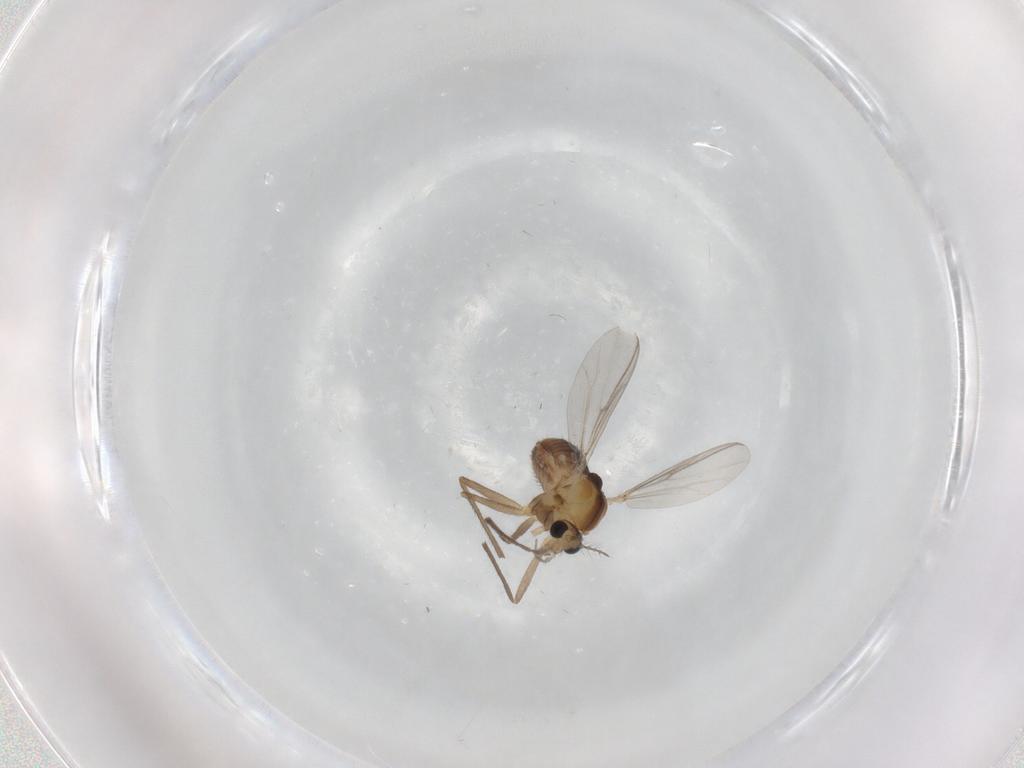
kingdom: Animalia
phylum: Arthropoda
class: Insecta
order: Diptera
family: Chironomidae
